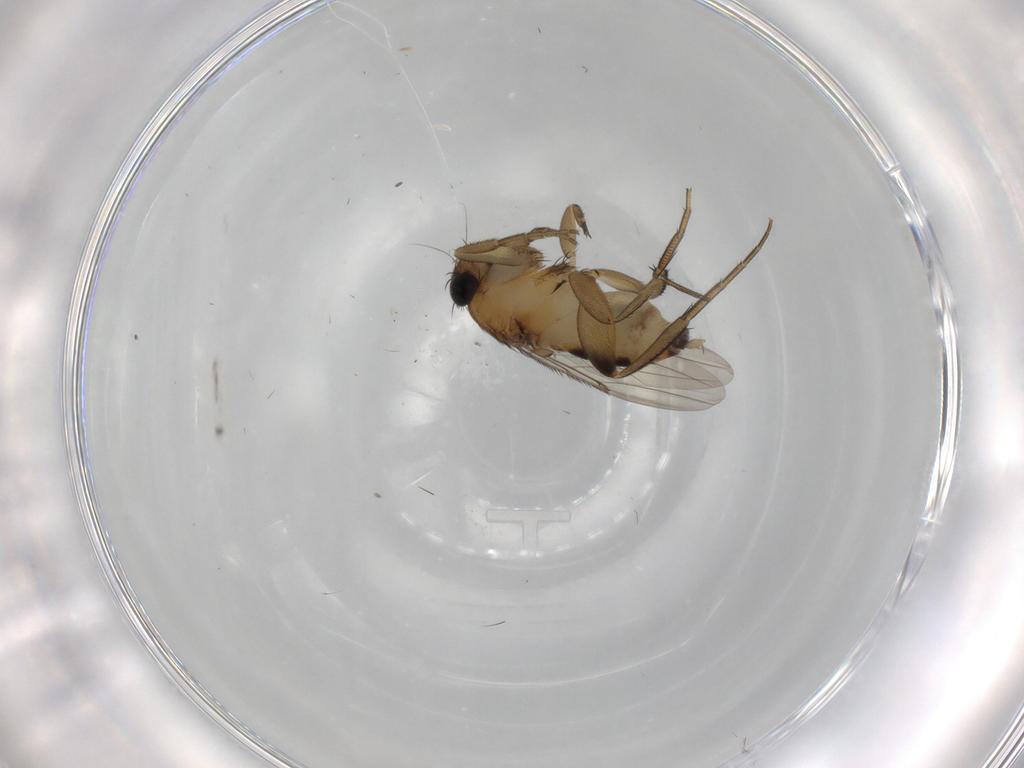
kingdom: Animalia
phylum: Arthropoda
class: Insecta
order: Diptera
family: Phoridae
